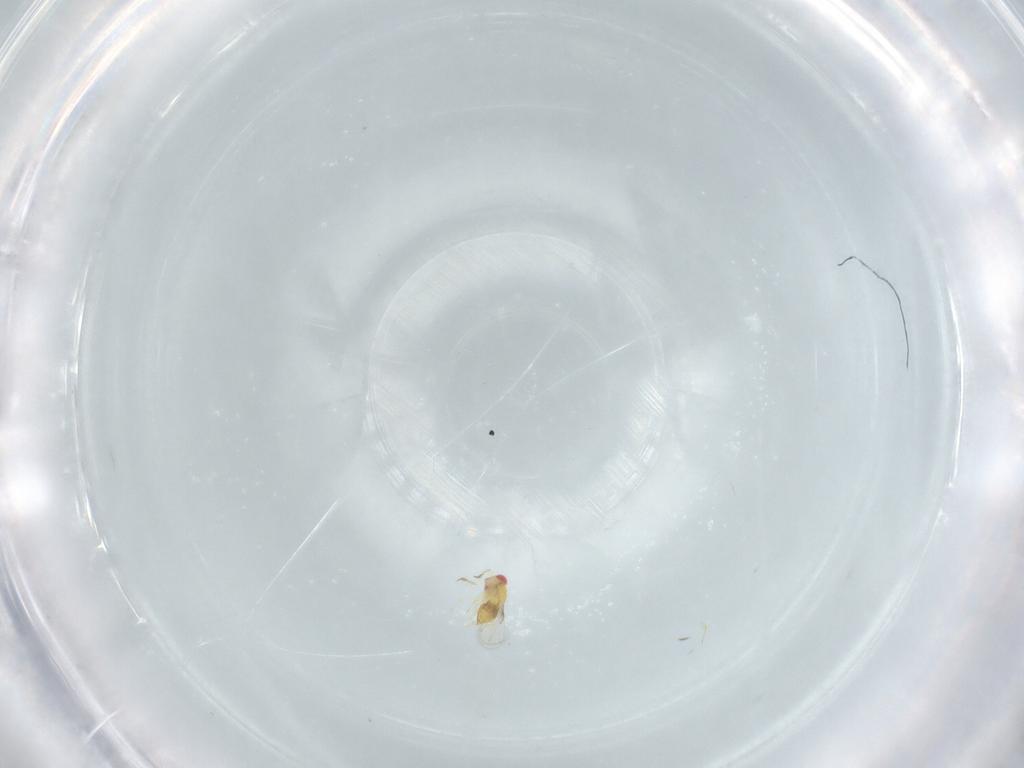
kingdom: Animalia
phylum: Arthropoda
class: Insecta
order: Hymenoptera
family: Trichogrammatidae
